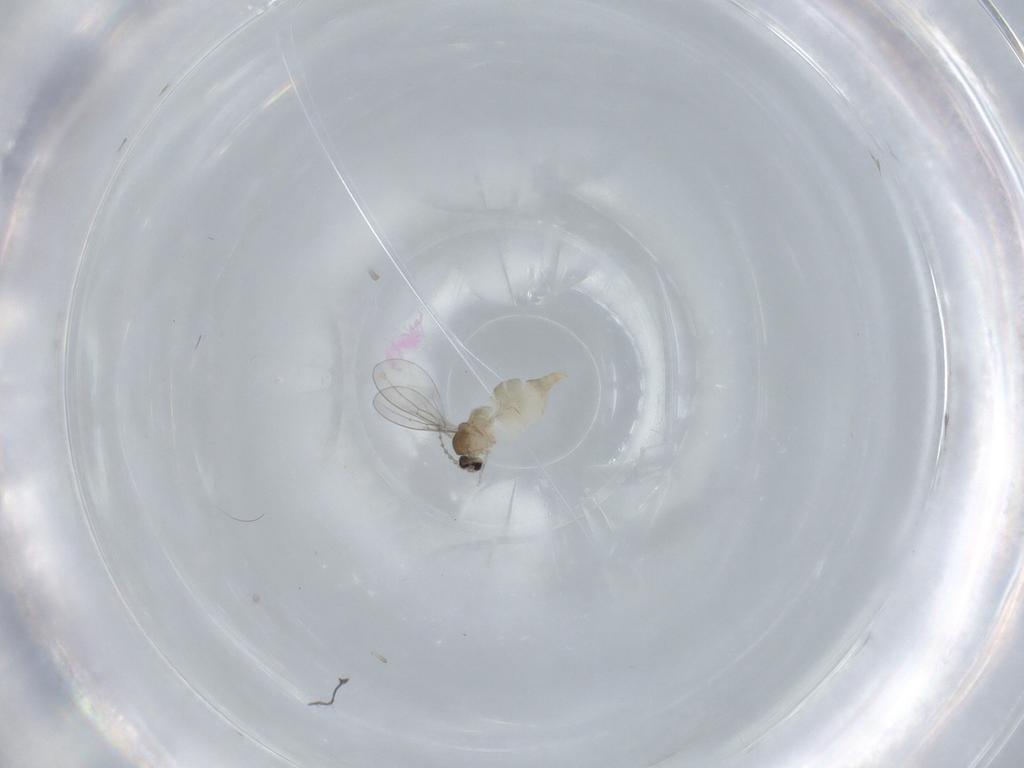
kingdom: Animalia
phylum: Arthropoda
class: Insecta
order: Diptera
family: Cecidomyiidae
